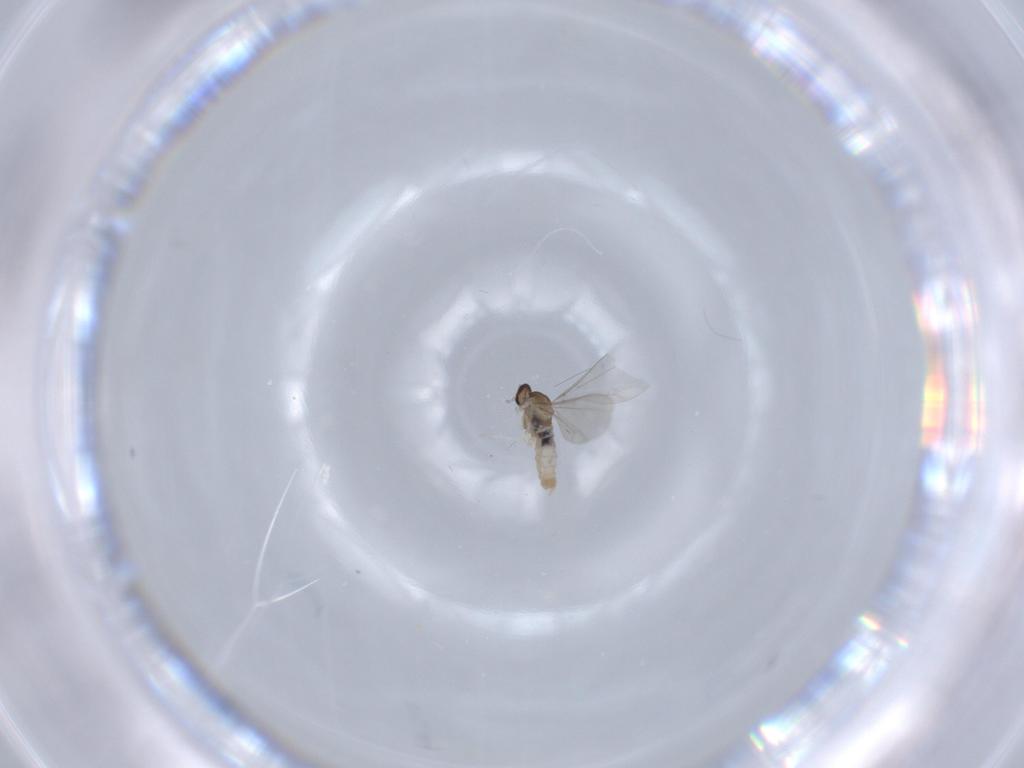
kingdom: Animalia
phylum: Arthropoda
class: Insecta
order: Diptera
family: Cecidomyiidae
